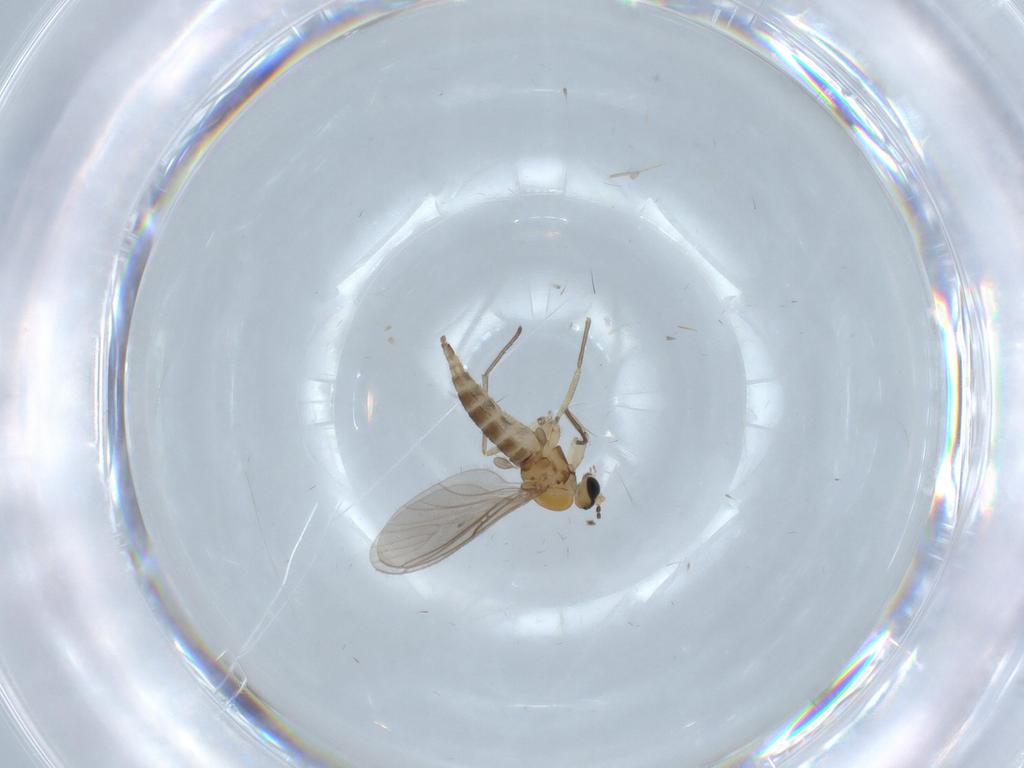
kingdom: Animalia
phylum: Arthropoda
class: Insecta
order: Diptera
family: Sciaridae
